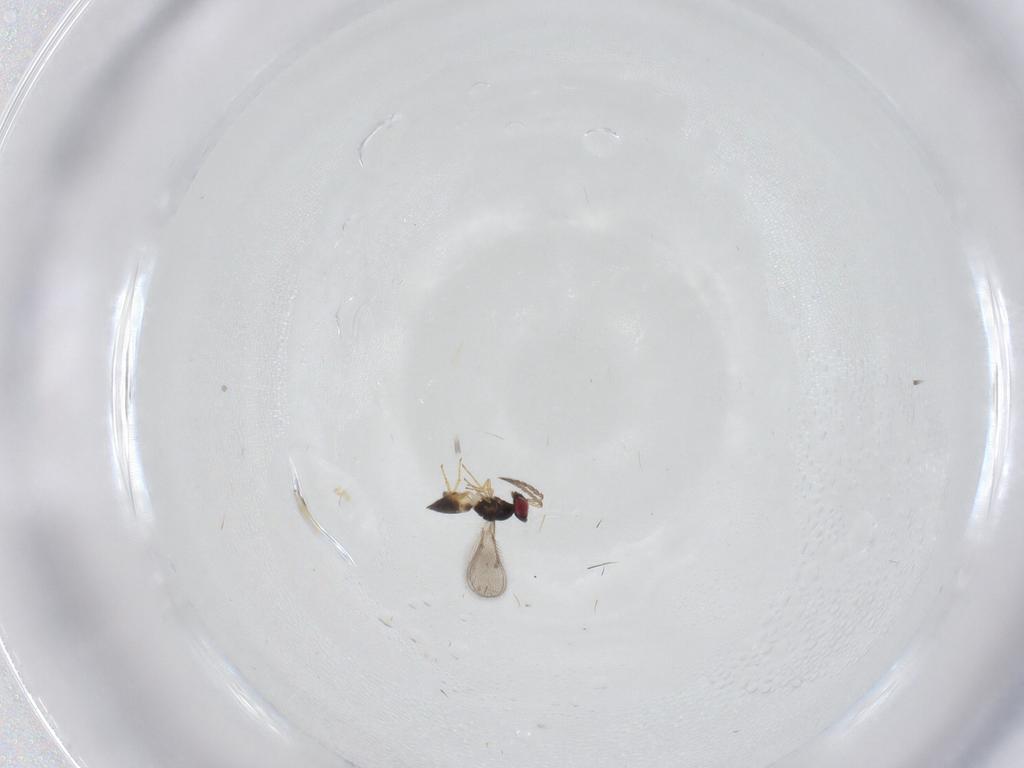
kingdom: Animalia
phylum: Arthropoda
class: Insecta
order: Hymenoptera
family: Eulophidae
